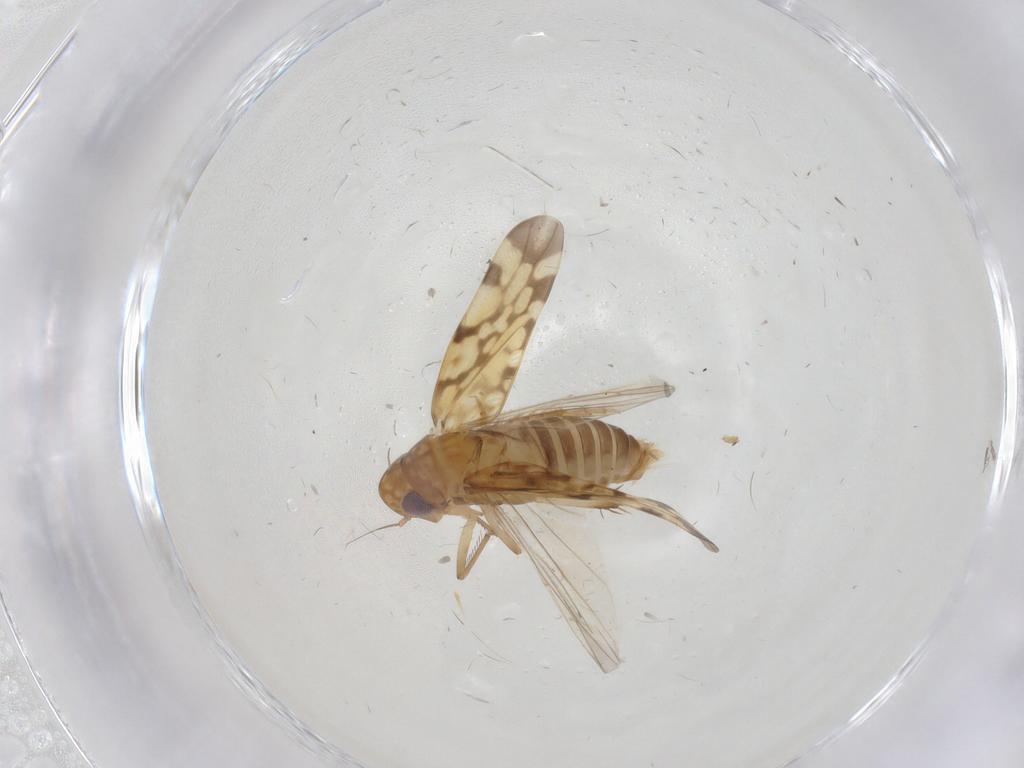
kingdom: Animalia
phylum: Arthropoda
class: Insecta
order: Hemiptera
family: Cicadellidae
